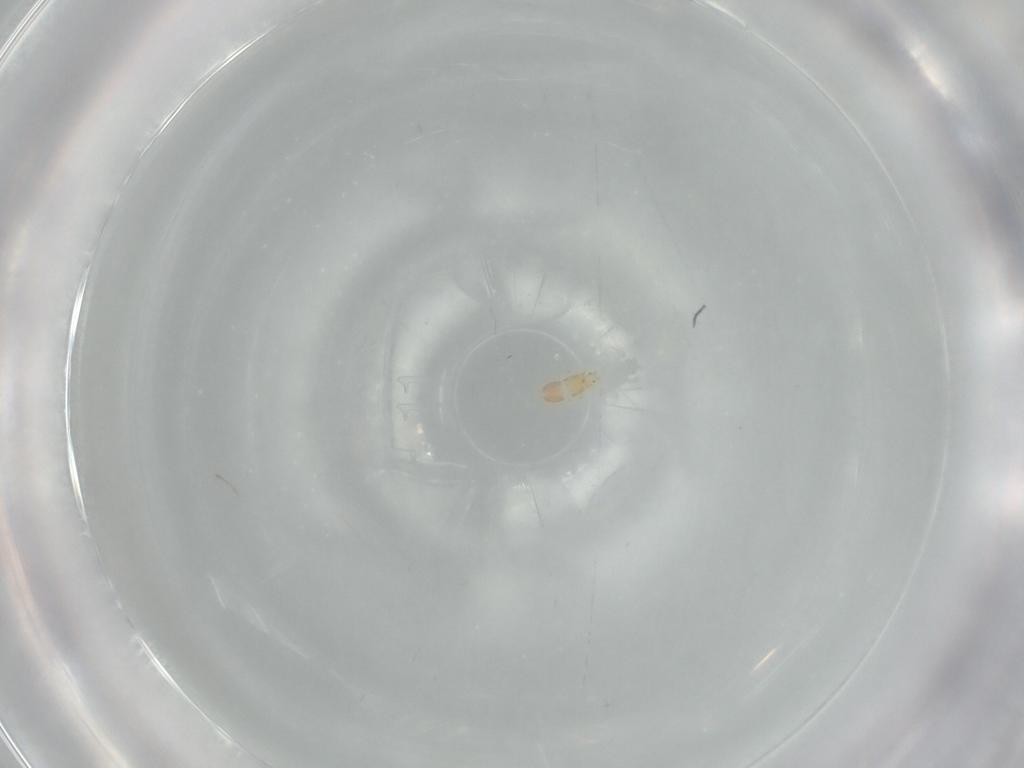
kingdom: Animalia
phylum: Arthropoda
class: Insecta
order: Thysanoptera
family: Thripidae
